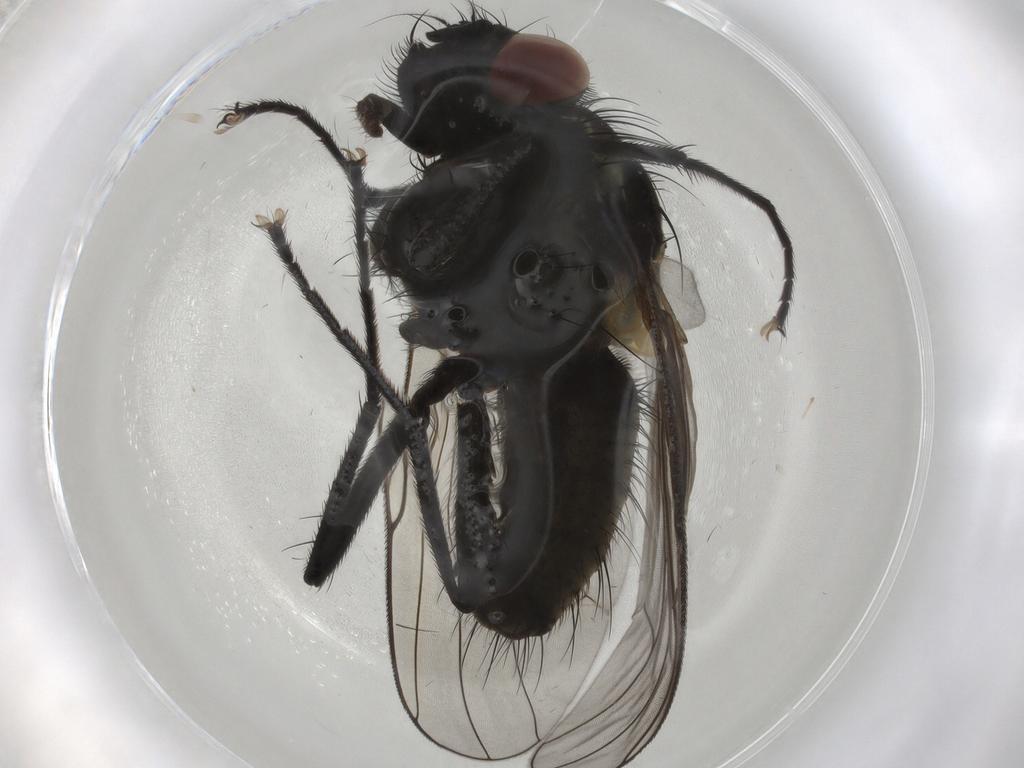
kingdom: Animalia
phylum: Arthropoda
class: Insecta
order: Diptera
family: Muscidae
